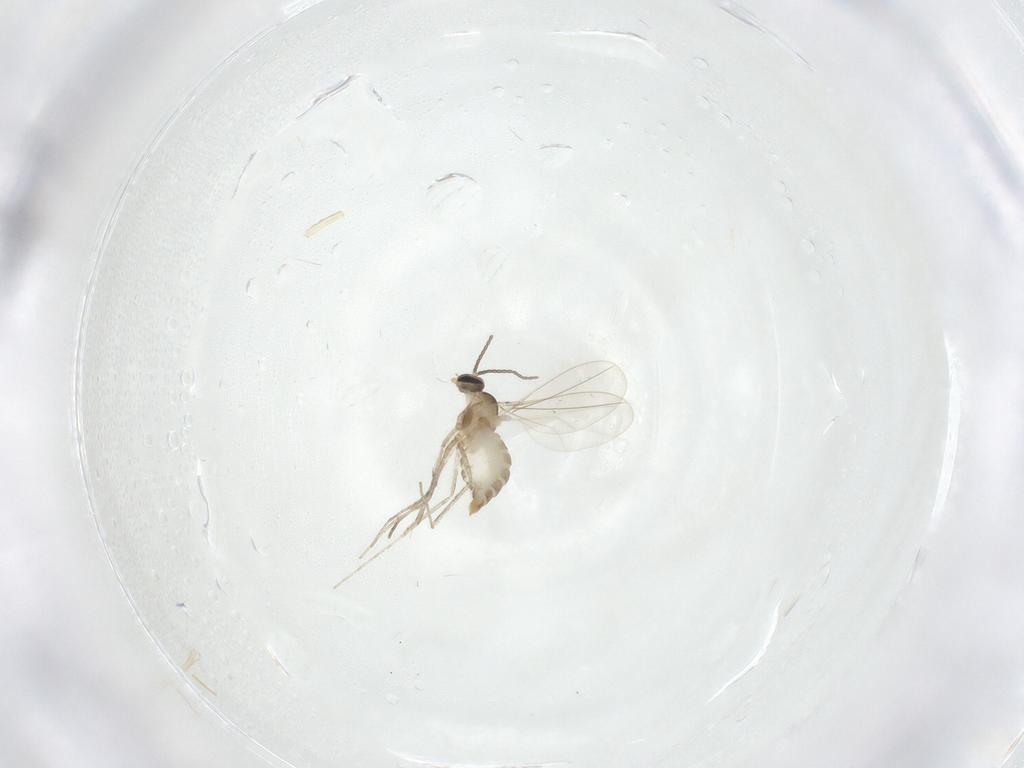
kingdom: Animalia
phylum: Arthropoda
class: Insecta
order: Diptera
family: Cecidomyiidae
